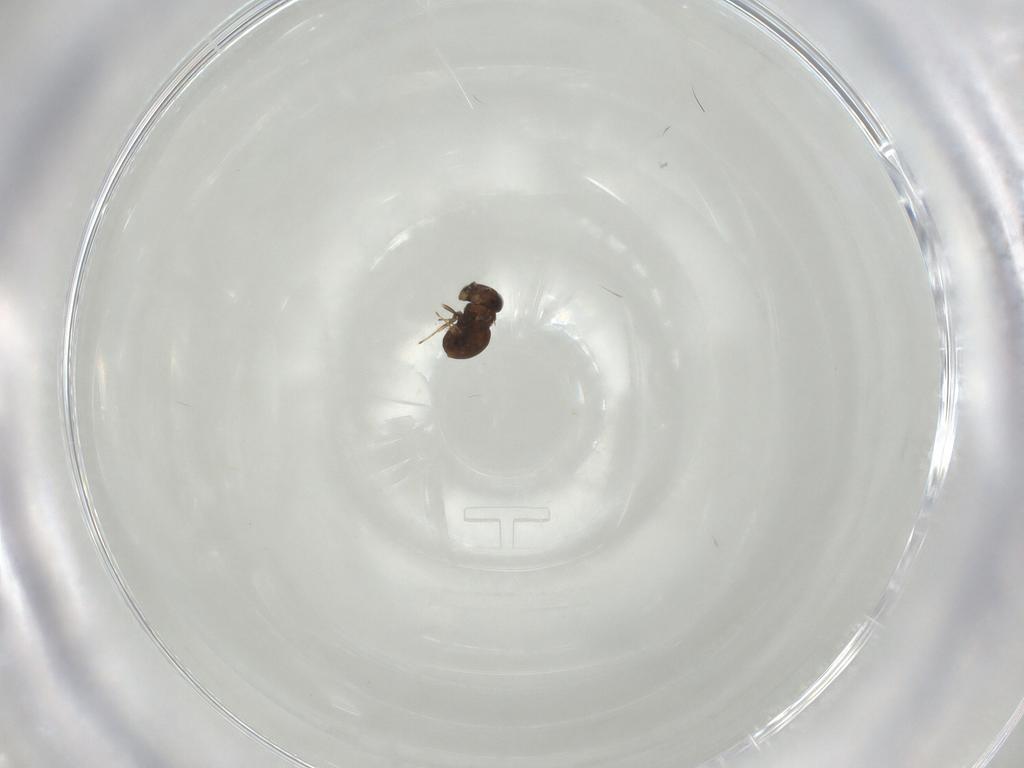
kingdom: Animalia
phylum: Arthropoda
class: Insecta
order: Hymenoptera
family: Scelionidae
